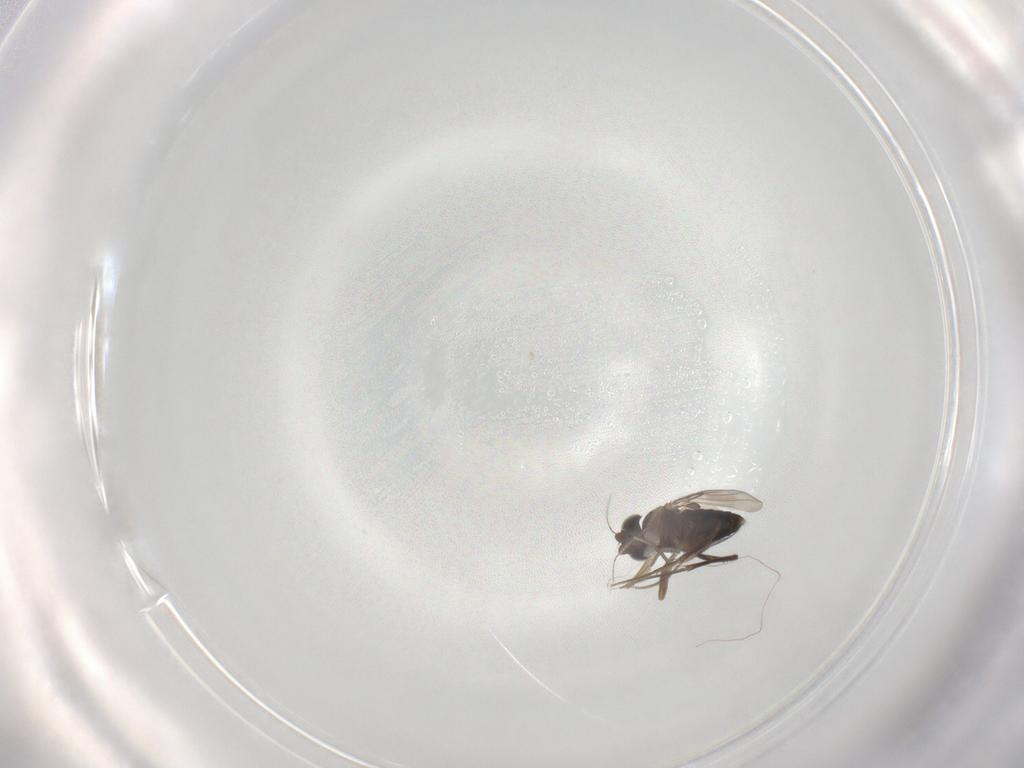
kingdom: Animalia
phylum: Arthropoda
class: Insecta
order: Diptera
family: Phoridae
